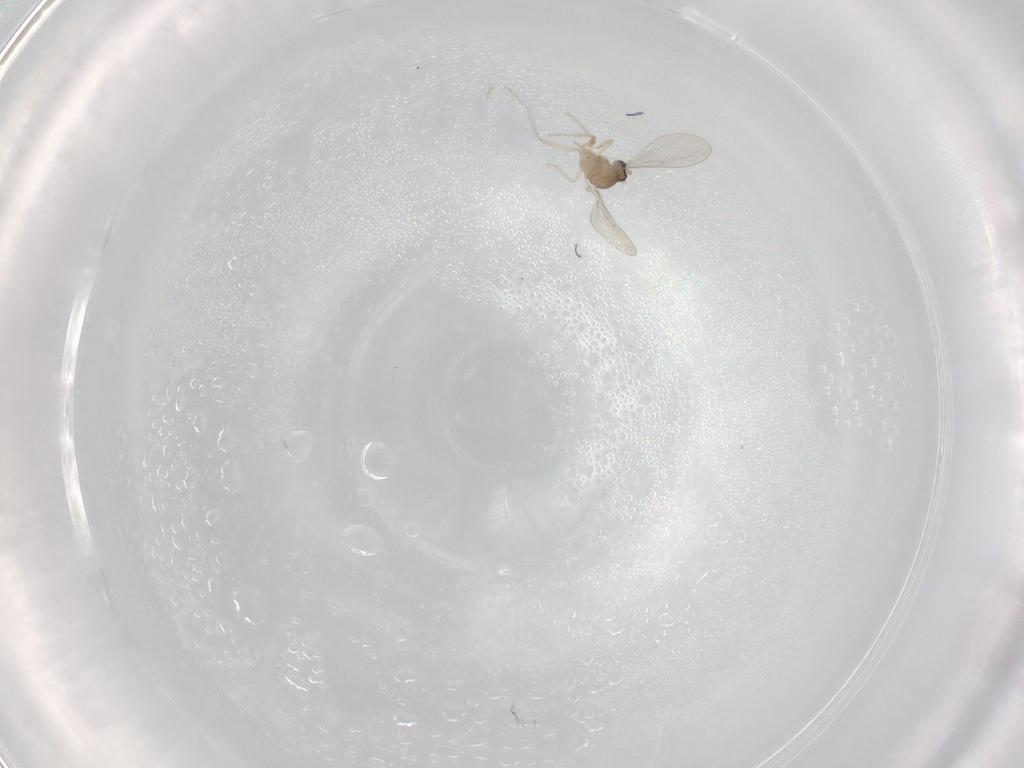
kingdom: Animalia
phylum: Arthropoda
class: Insecta
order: Diptera
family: Cecidomyiidae
